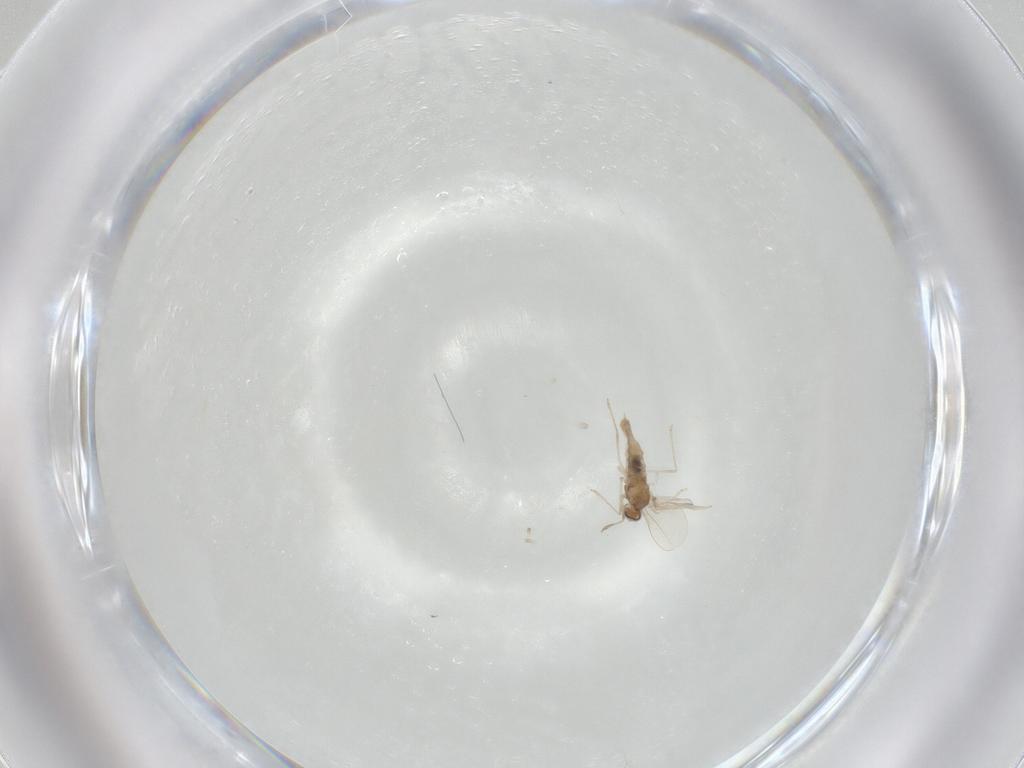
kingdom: Animalia
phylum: Arthropoda
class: Insecta
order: Diptera
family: Cecidomyiidae
